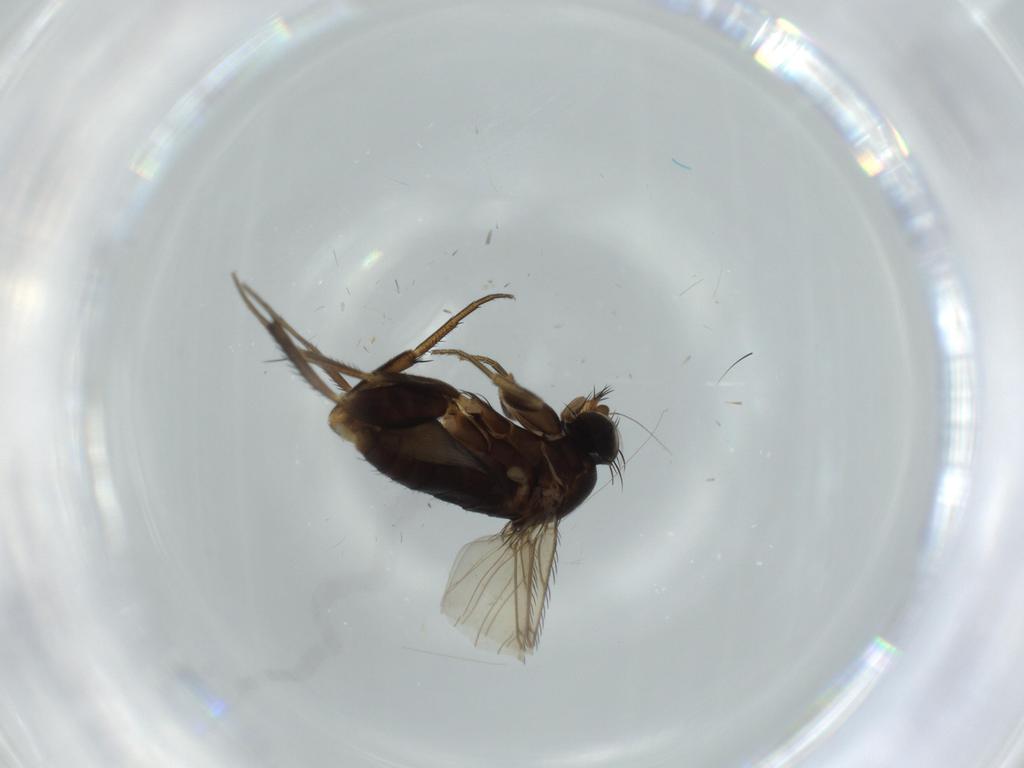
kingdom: Animalia
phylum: Arthropoda
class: Insecta
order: Diptera
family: Phoridae
